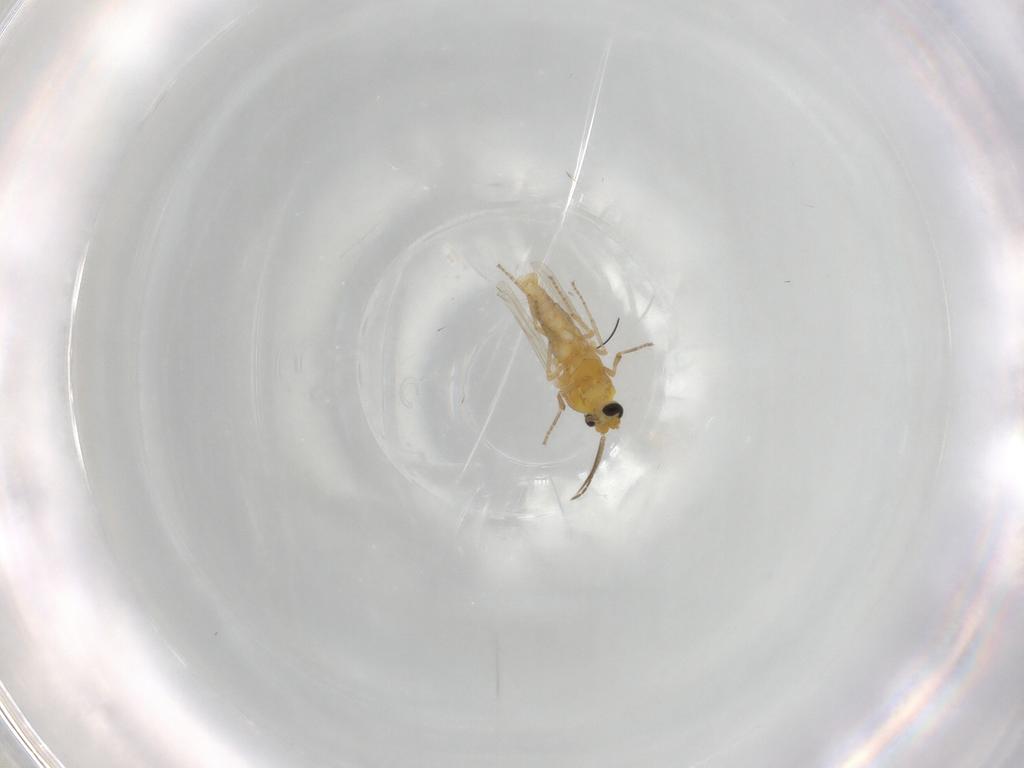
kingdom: Animalia
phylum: Arthropoda
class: Insecta
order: Diptera
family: Ceratopogonidae
